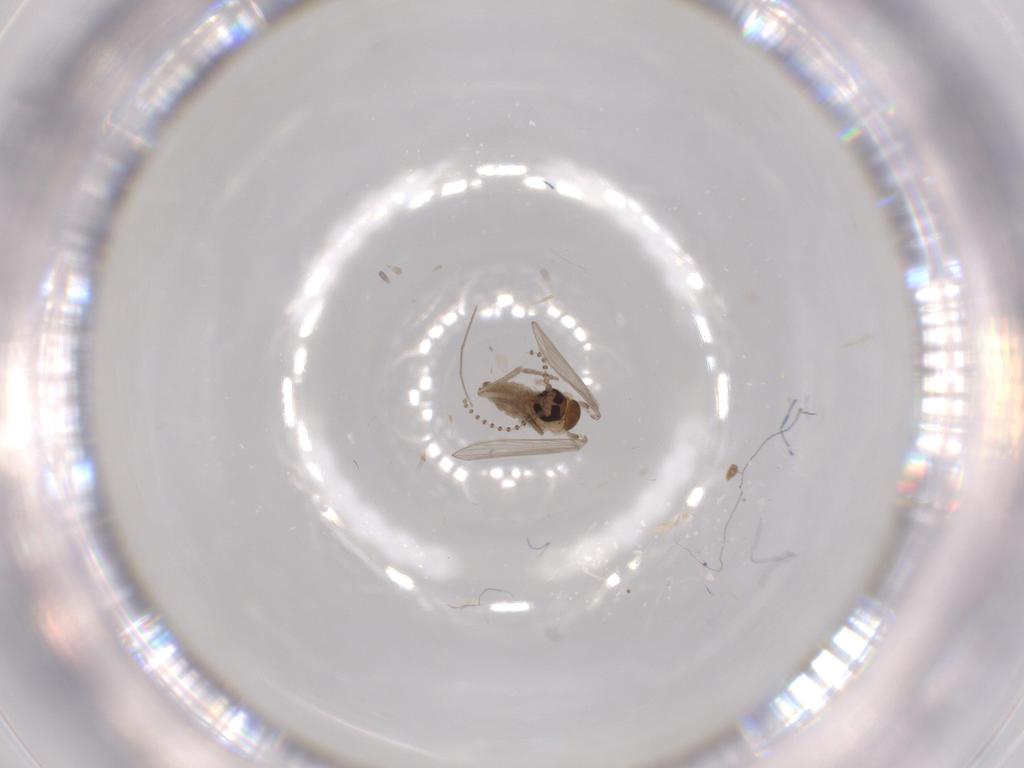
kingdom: Animalia
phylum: Arthropoda
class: Insecta
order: Diptera
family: Psychodidae
